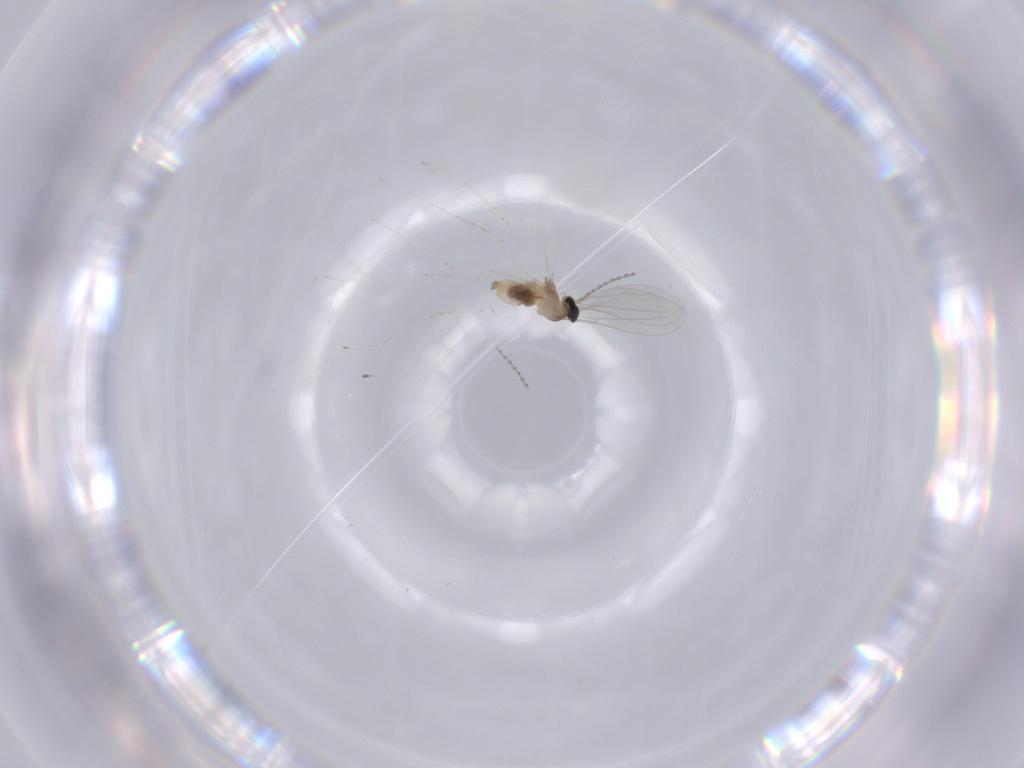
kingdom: Animalia
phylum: Arthropoda
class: Insecta
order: Diptera
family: Cecidomyiidae
